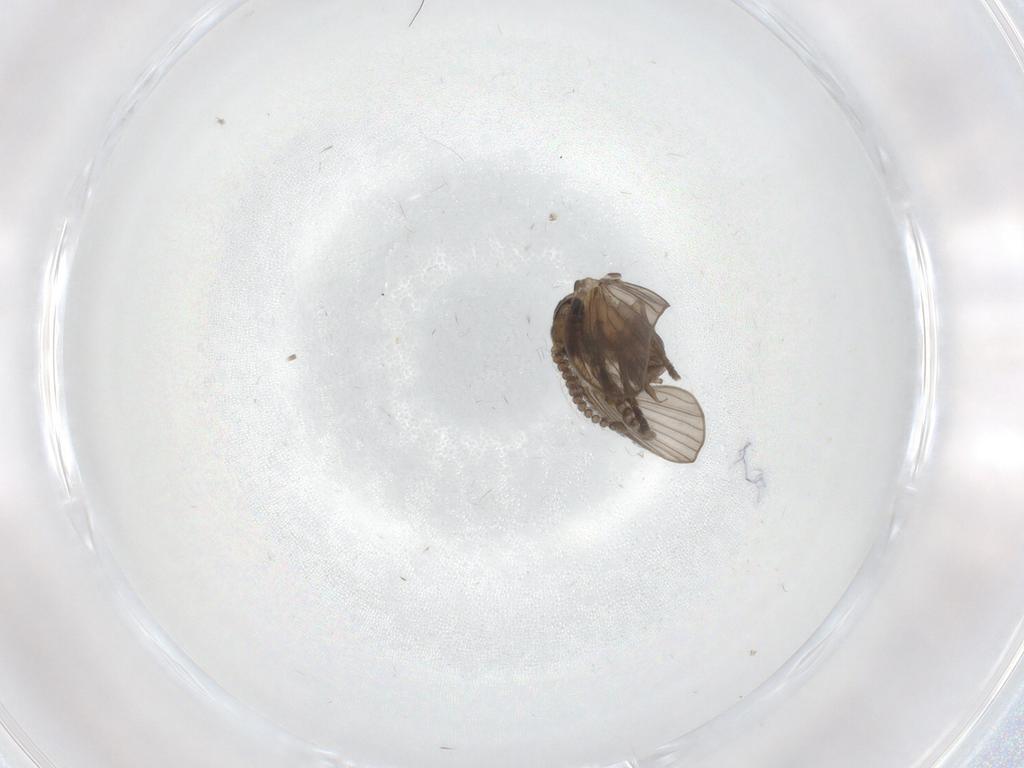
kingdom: Animalia
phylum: Arthropoda
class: Insecta
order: Diptera
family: Psychodidae
